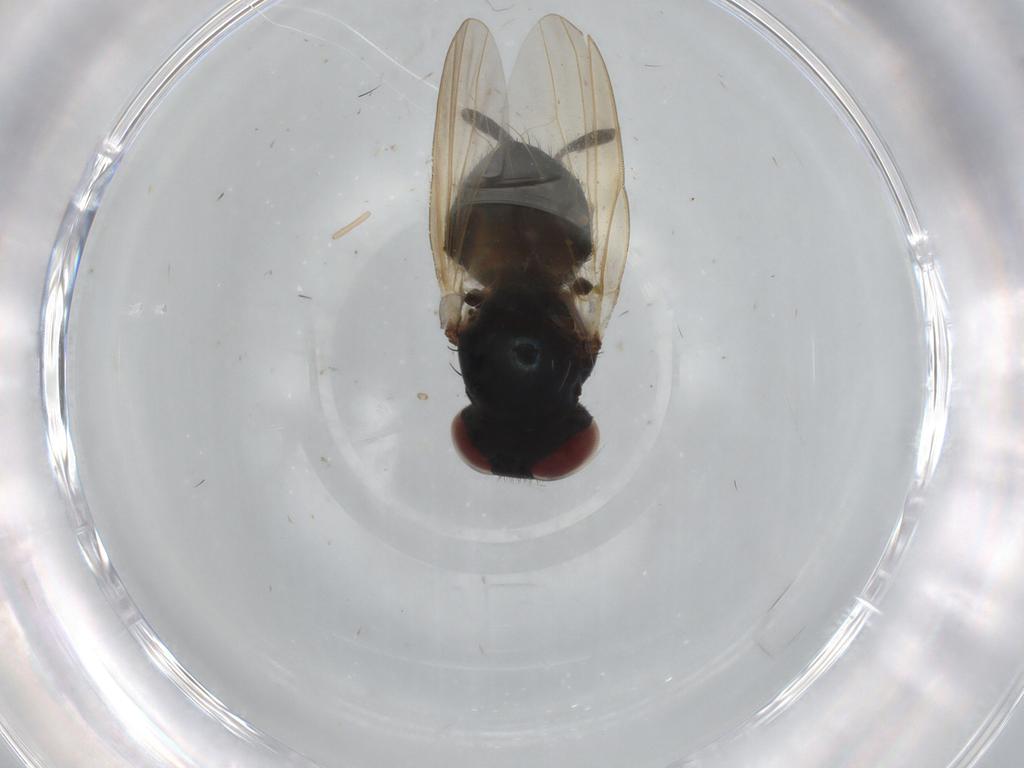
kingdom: Animalia
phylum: Arthropoda
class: Insecta
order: Diptera
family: Lonchaeidae
